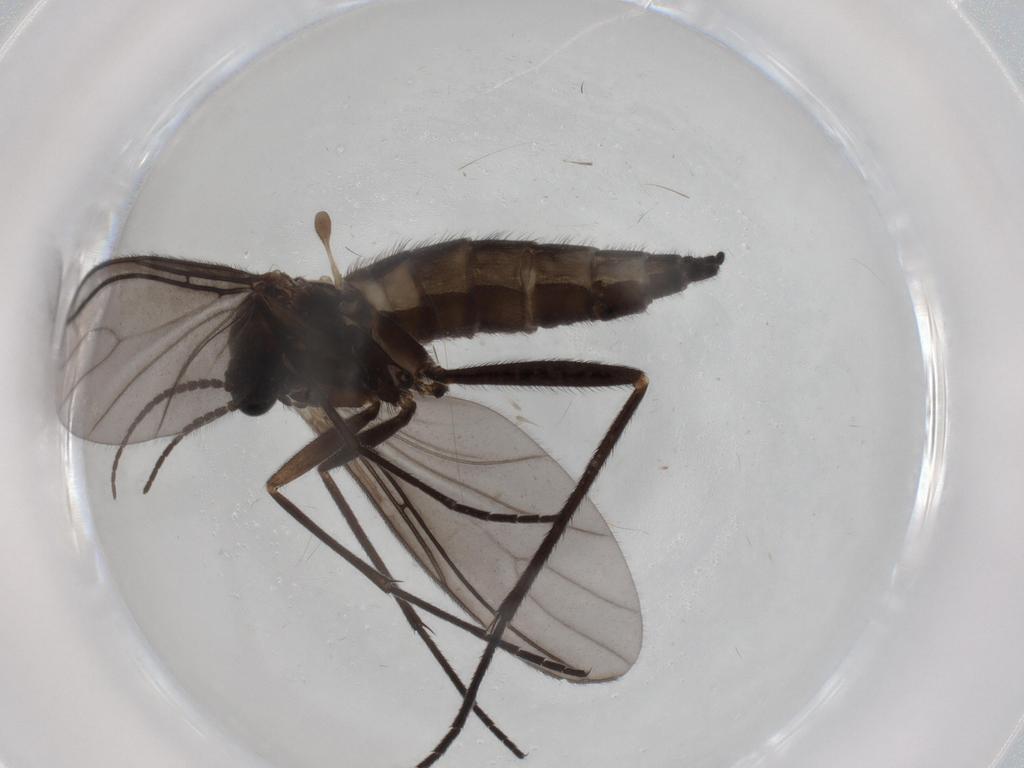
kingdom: Animalia
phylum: Arthropoda
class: Insecta
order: Diptera
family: Sciaridae
